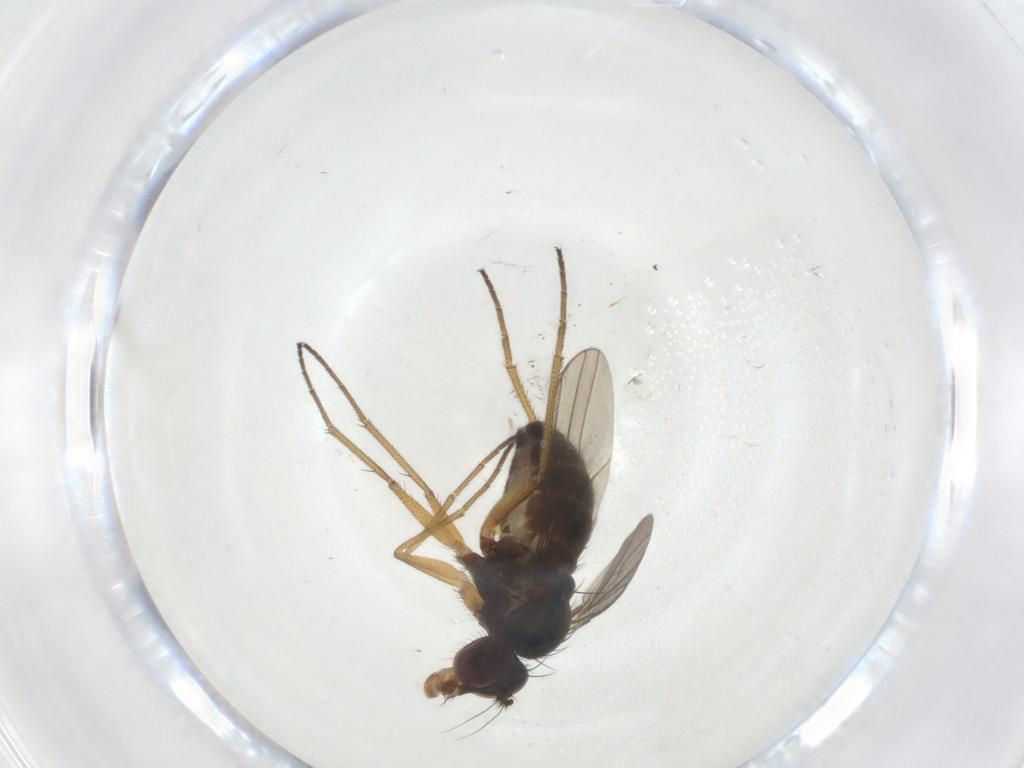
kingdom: Animalia
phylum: Arthropoda
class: Insecta
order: Diptera
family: Dolichopodidae
